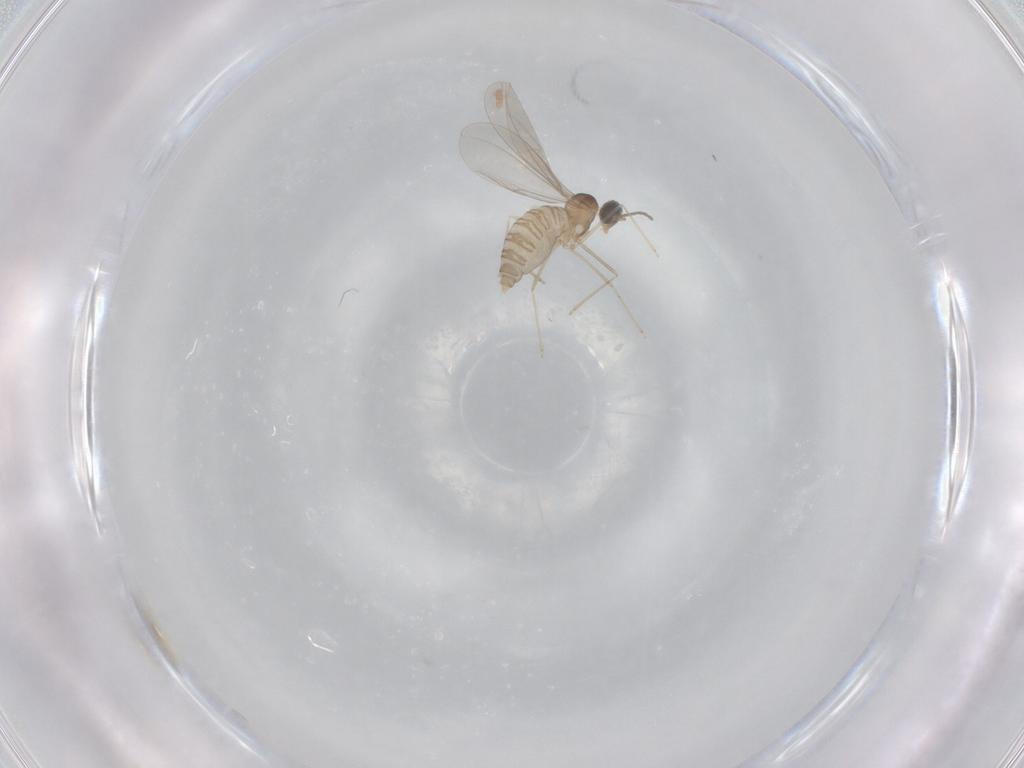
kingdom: Animalia
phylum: Arthropoda
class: Insecta
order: Diptera
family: Cecidomyiidae
